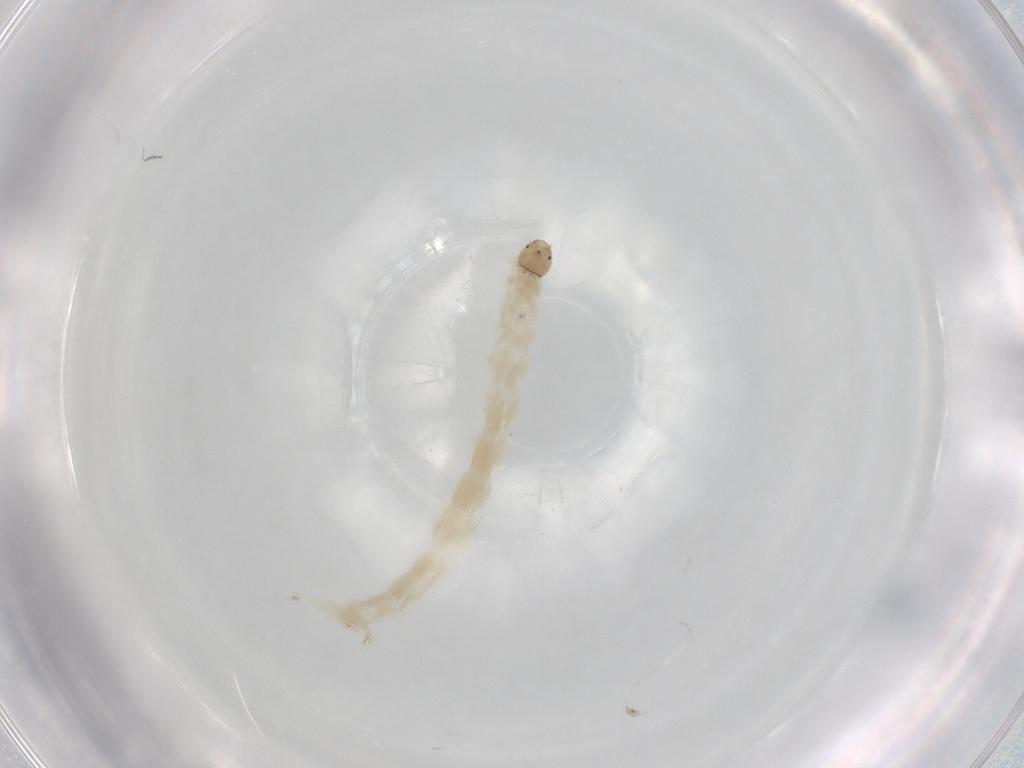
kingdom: Animalia
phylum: Arthropoda
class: Insecta
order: Diptera
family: Chironomidae
